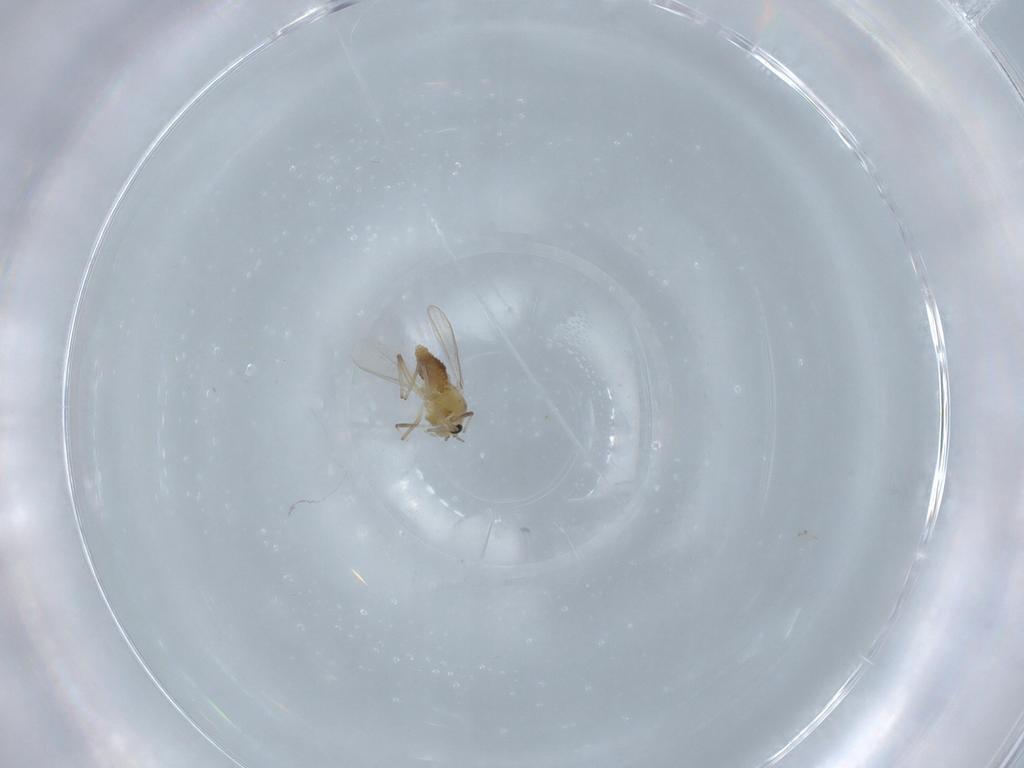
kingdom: Animalia
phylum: Arthropoda
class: Insecta
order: Diptera
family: Ceratopogonidae
